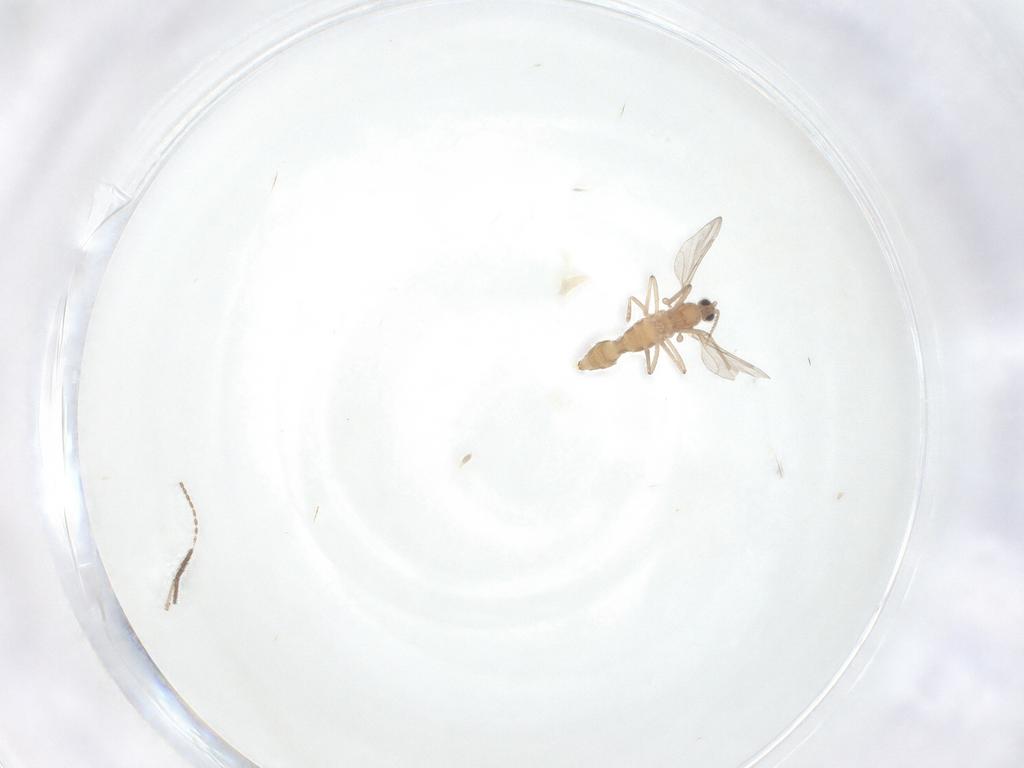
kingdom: Animalia
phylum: Arthropoda
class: Insecta
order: Diptera
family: Cecidomyiidae
